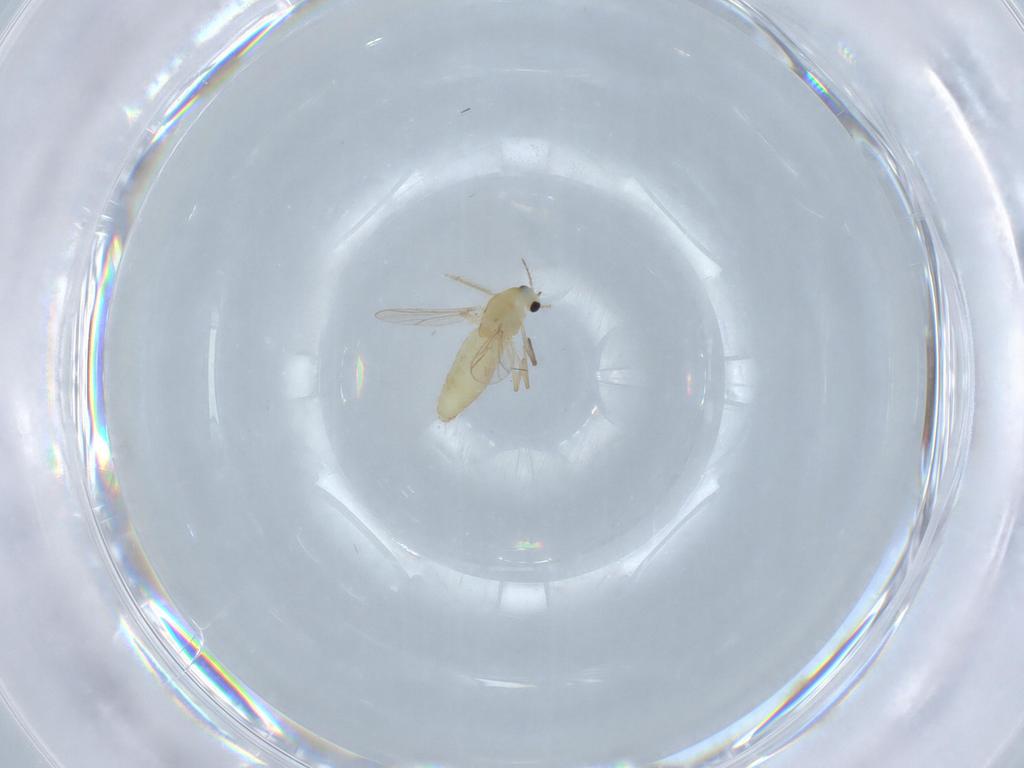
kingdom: Animalia
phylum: Arthropoda
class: Insecta
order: Diptera
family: Chironomidae
